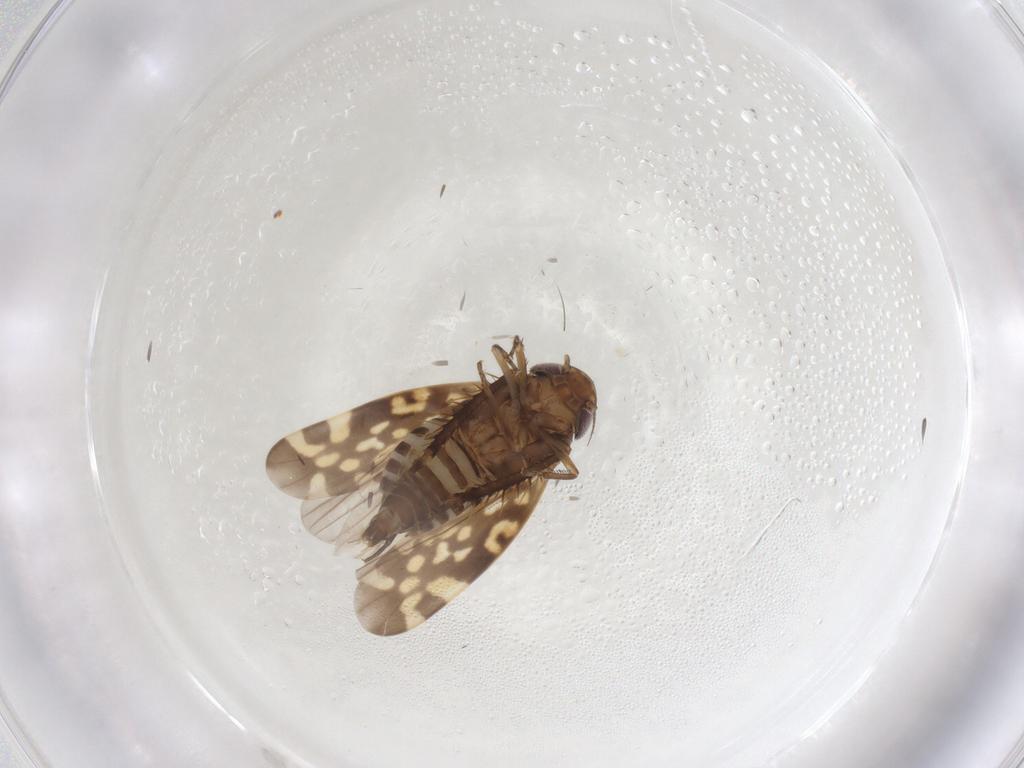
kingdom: Animalia
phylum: Arthropoda
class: Insecta
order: Hemiptera
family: Cicadellidae
